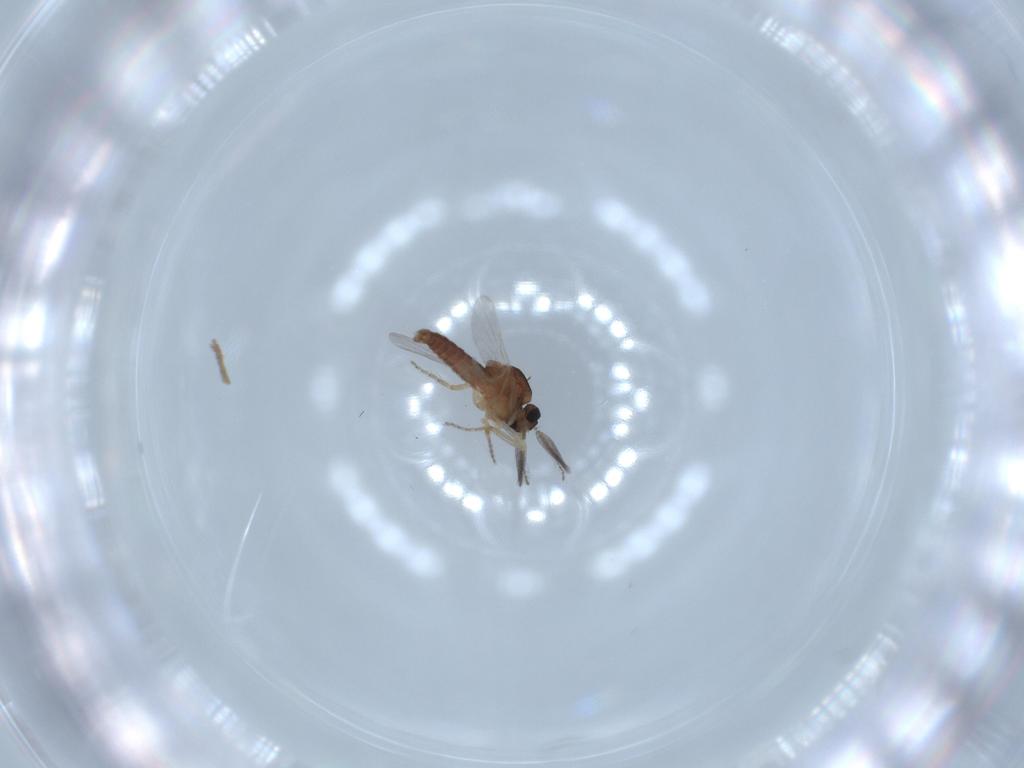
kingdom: Animalia
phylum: Arthropoda
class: Insecta
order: Diptera
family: Ceratopogonidae
